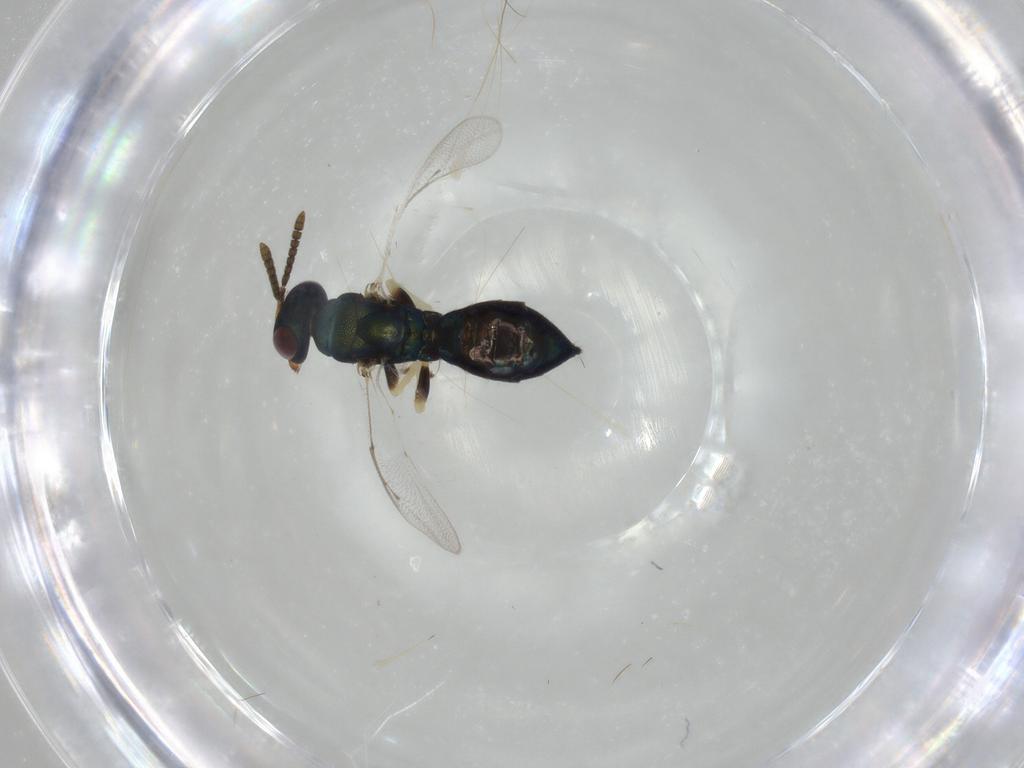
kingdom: Animalia
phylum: Arthropoda
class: Insecta
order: Hymenoptera
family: Pteromalidae
